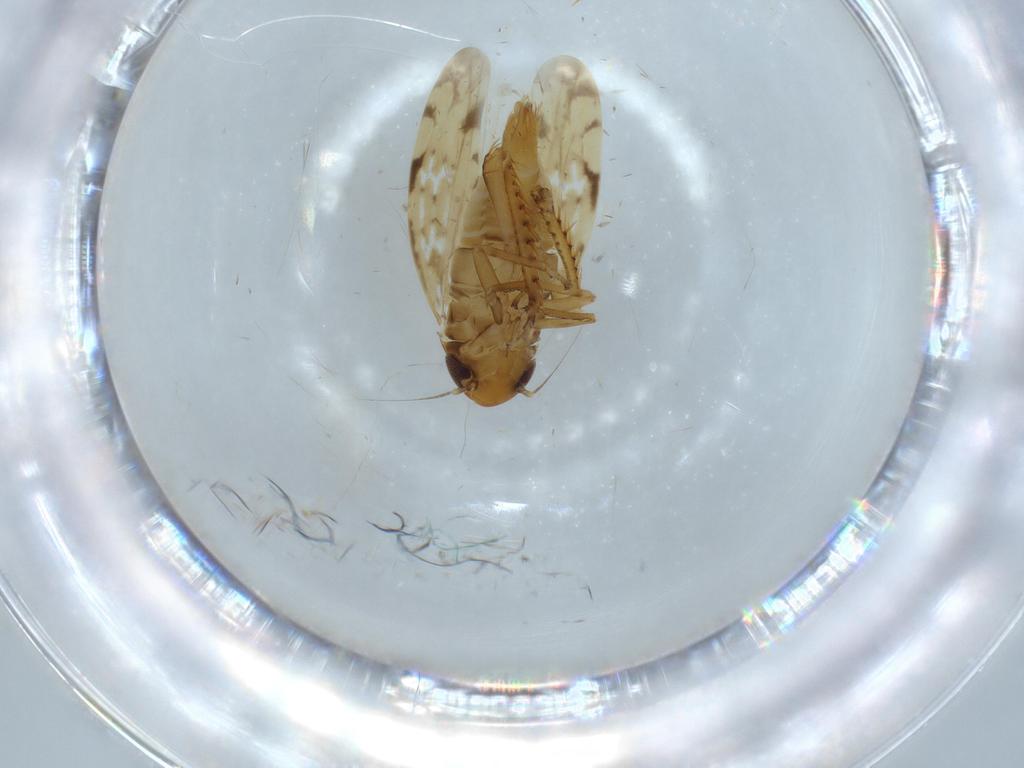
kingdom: Animalia
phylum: Arthropoda
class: Insecta
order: Hemiptera
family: Cicadellidae
